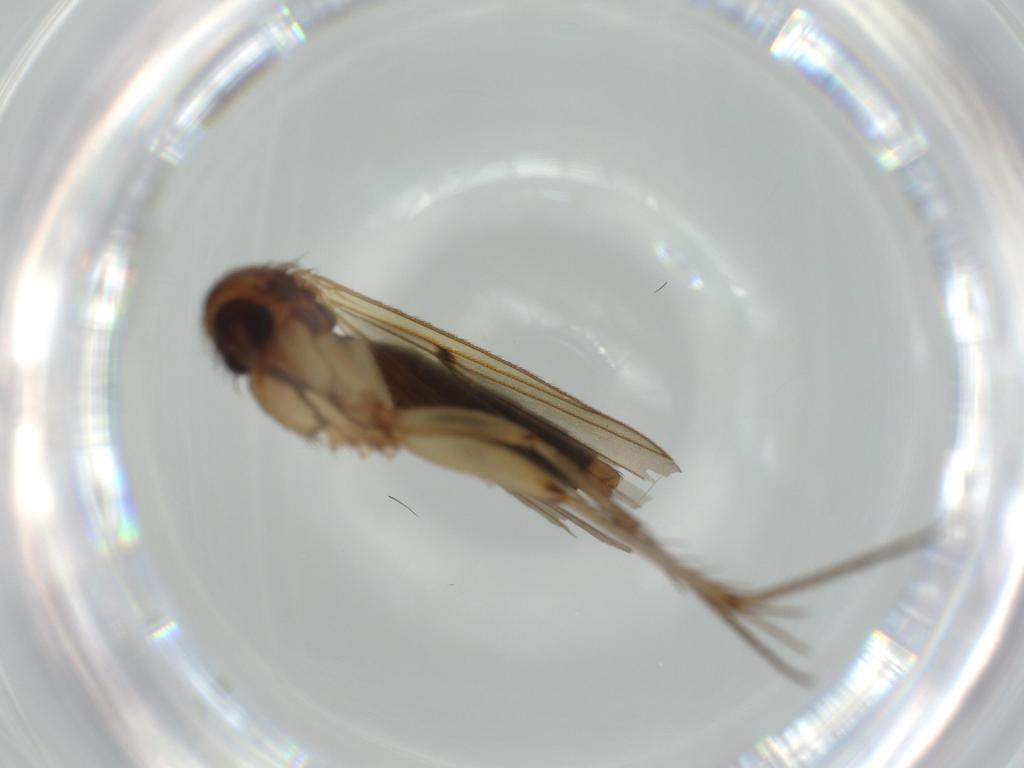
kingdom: Animalia
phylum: Arthropoda
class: Insecta
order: Diptera
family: Mycetophilidae
